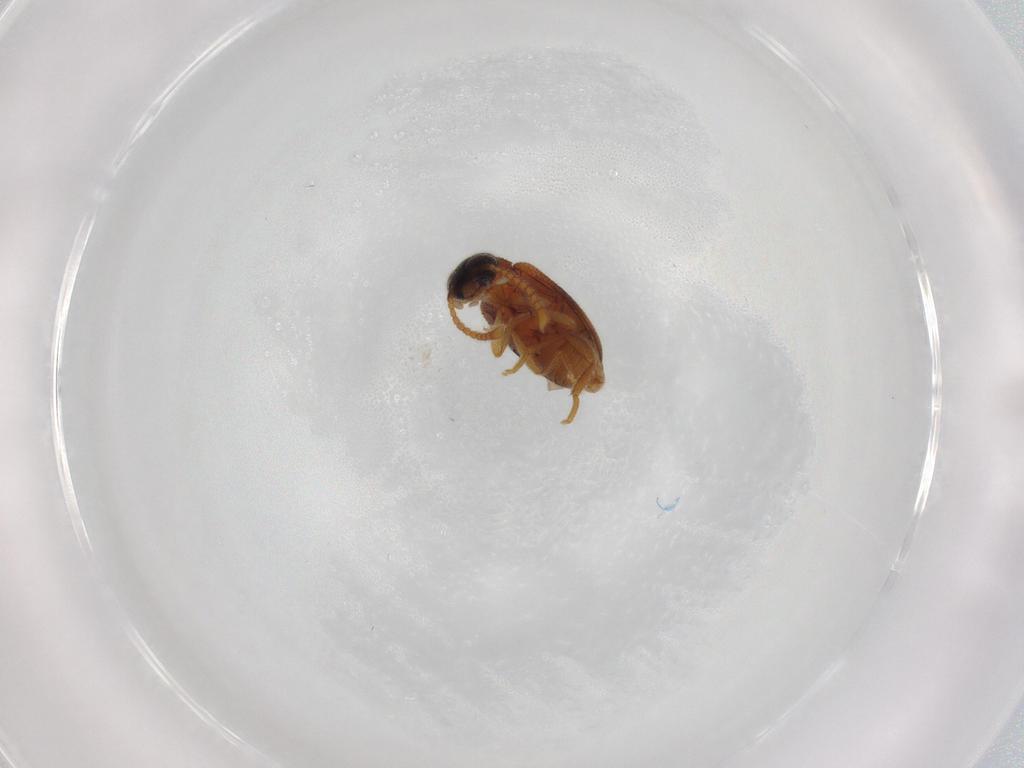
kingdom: Animalia
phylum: Arthropoda
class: Insecta
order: Coleoptera
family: Aderidae
